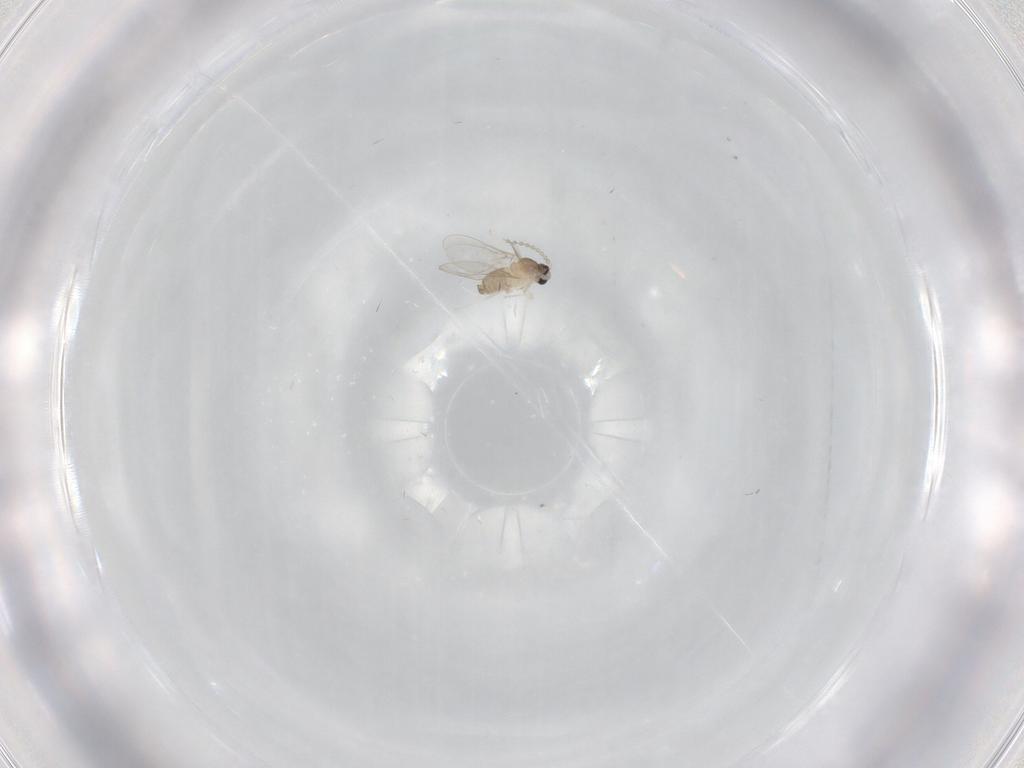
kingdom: Animalia
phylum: Arthropoda
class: Insecta
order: Diptera
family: Cecidomyiidae
